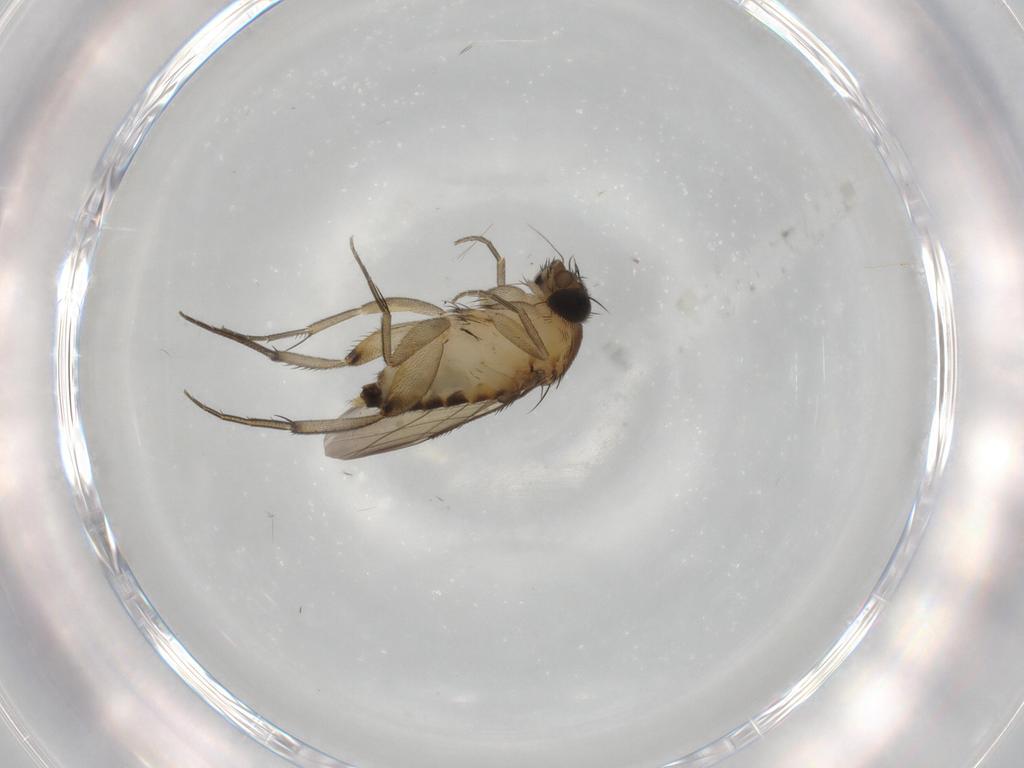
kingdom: Animalia
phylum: Arthropoda
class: Insecta
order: Diptera
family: Phoridae
